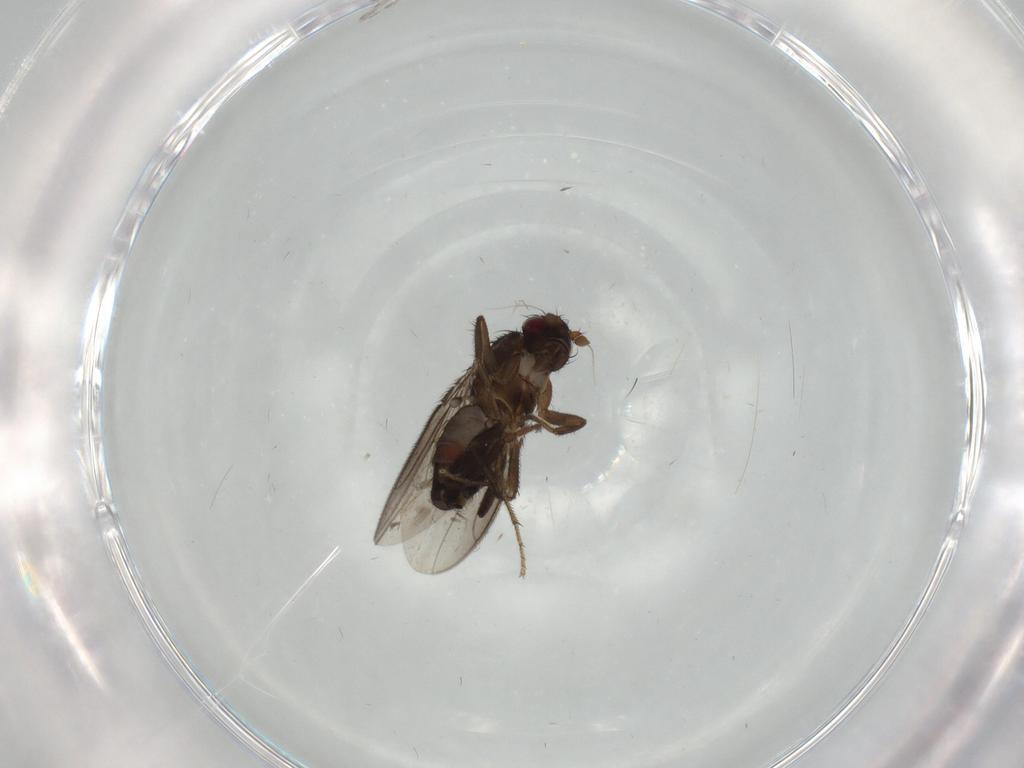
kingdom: Animalia
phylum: Arthropoda
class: Insecta
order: Diptera
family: Sphaeroceridae
